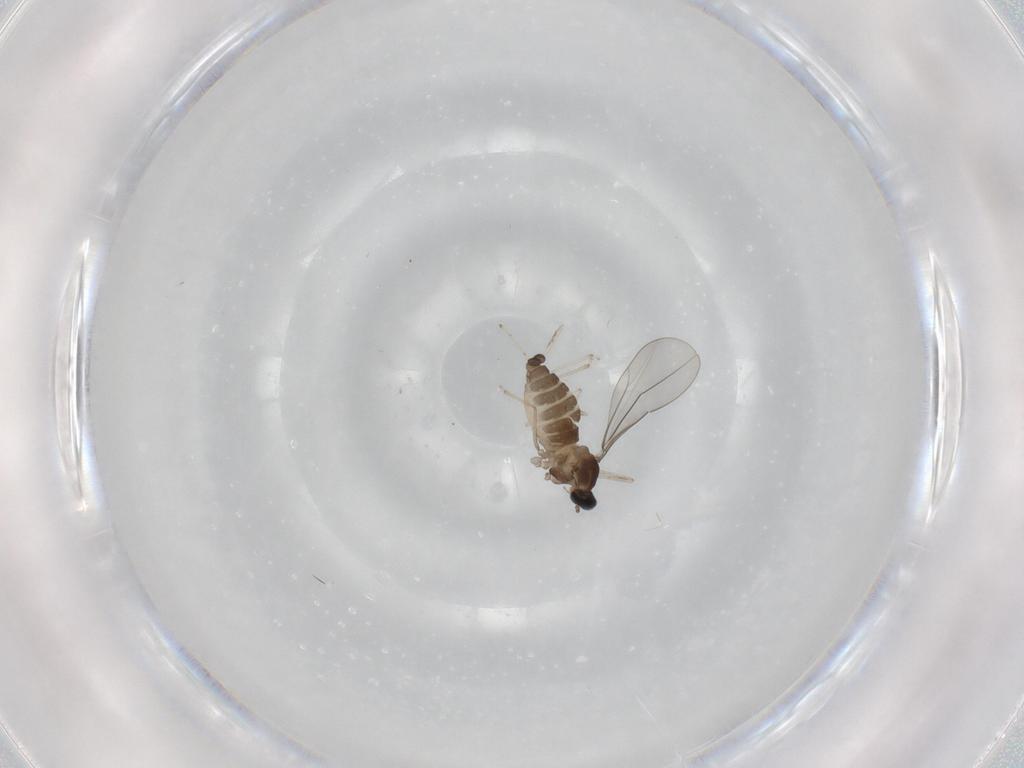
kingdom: Animalia
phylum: Arthropoda
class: Insecta
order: Diptera
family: Cecidomyiidae
